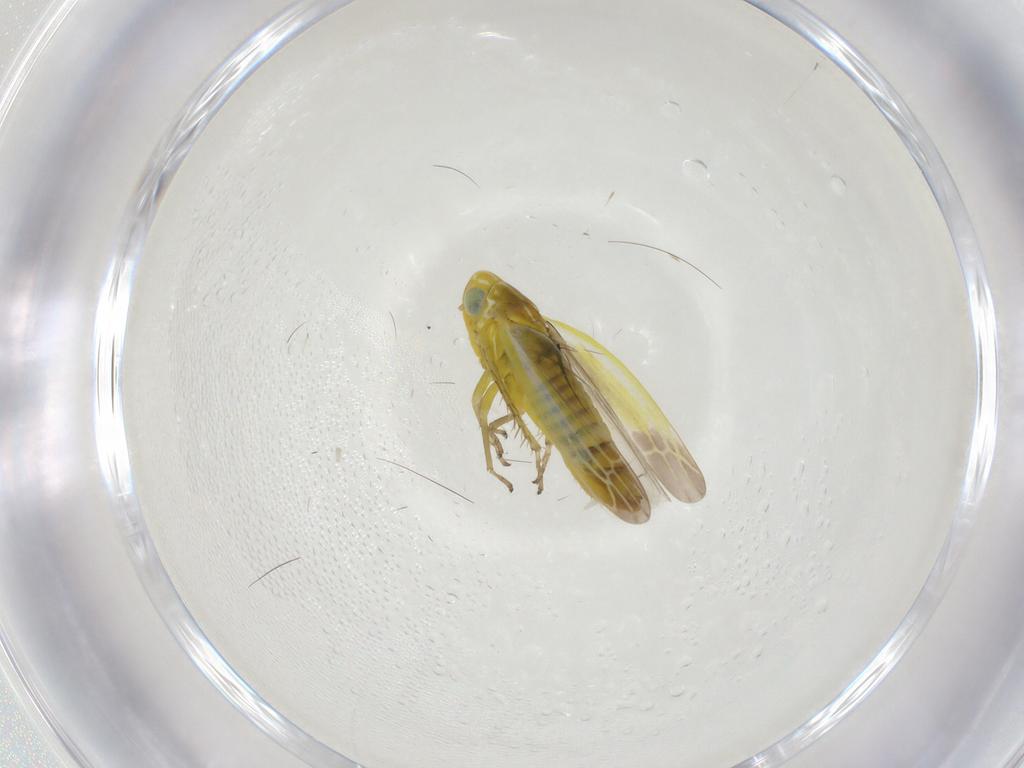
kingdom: Animalia
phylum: Arthropoda
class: Insecta
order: Hemiptera
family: Cicadellidae
